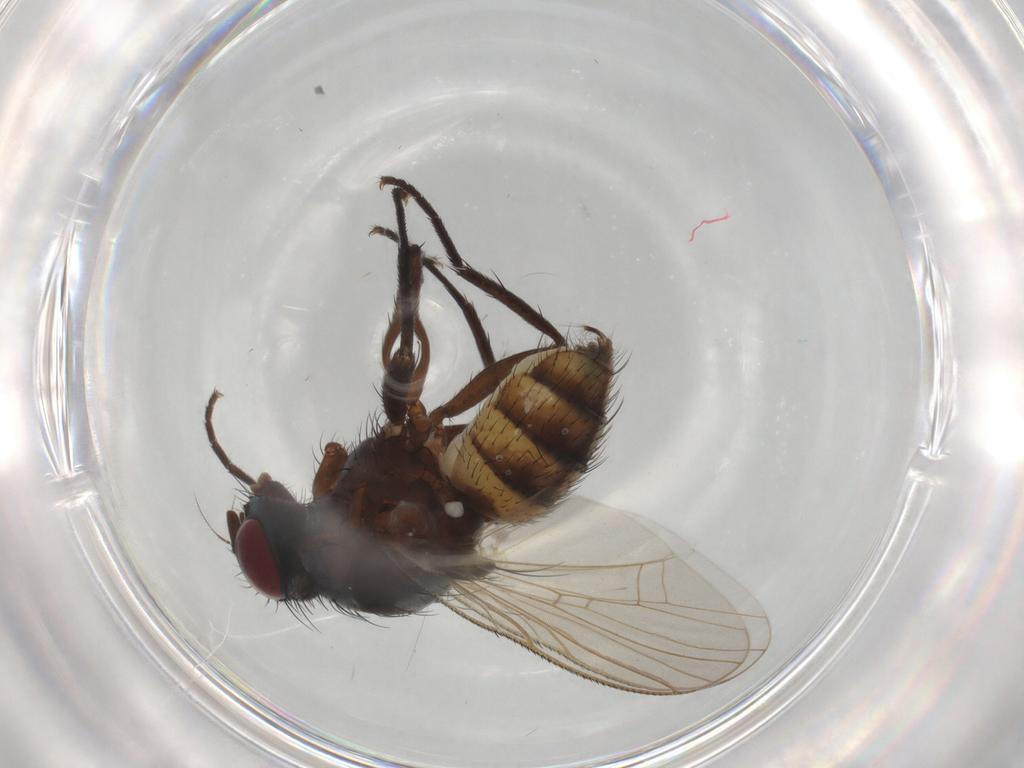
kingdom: Animalia
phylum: Arthropoda
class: Insecta
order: Diptera
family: Anthomyiidae
